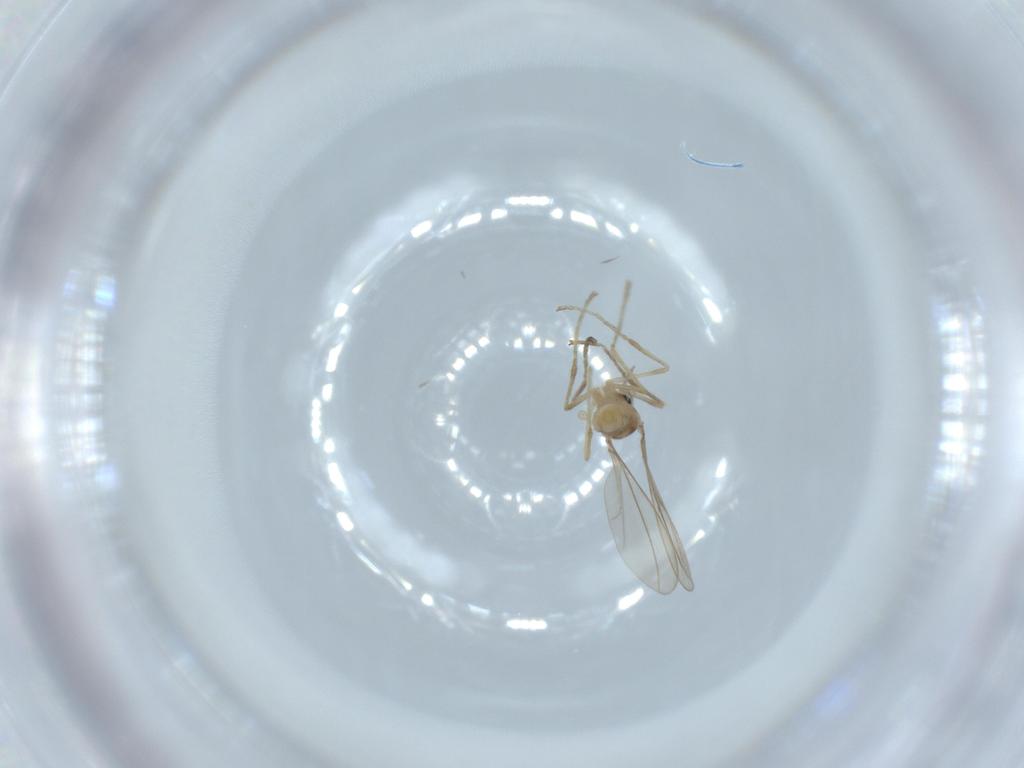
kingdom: Animalia
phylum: Arthropoda
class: Insecta
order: Diptera
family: Cecidomyiidae
